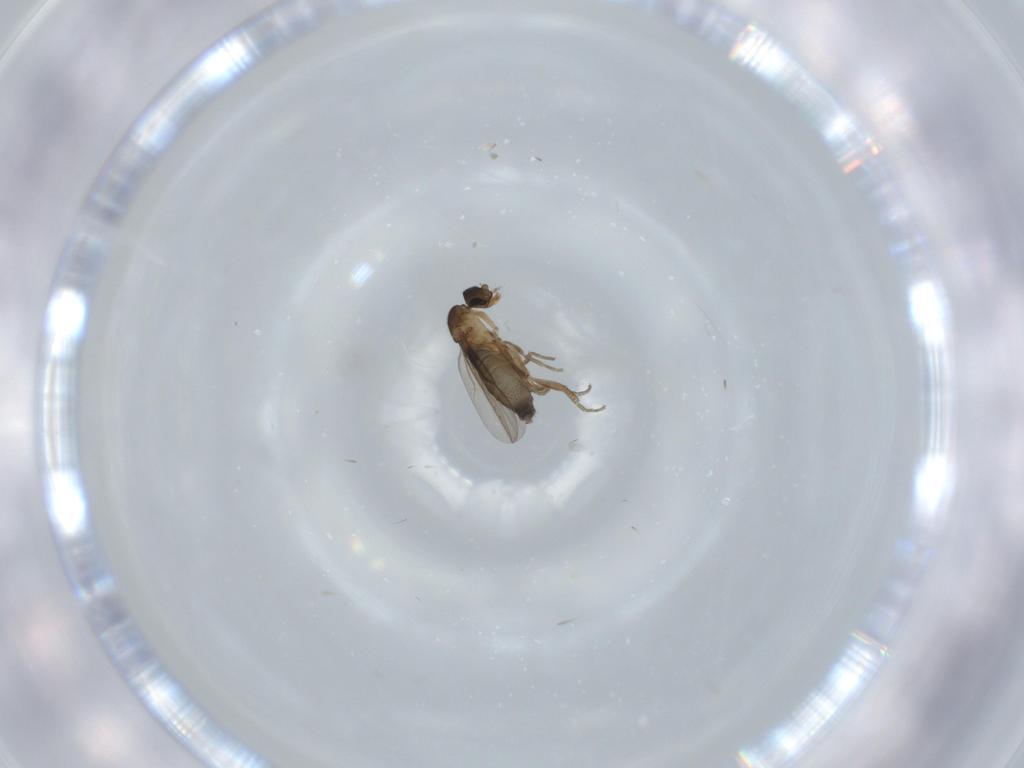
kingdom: Animalia
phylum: Arthropoda
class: Insecta
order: Diptera
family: Phoridae
